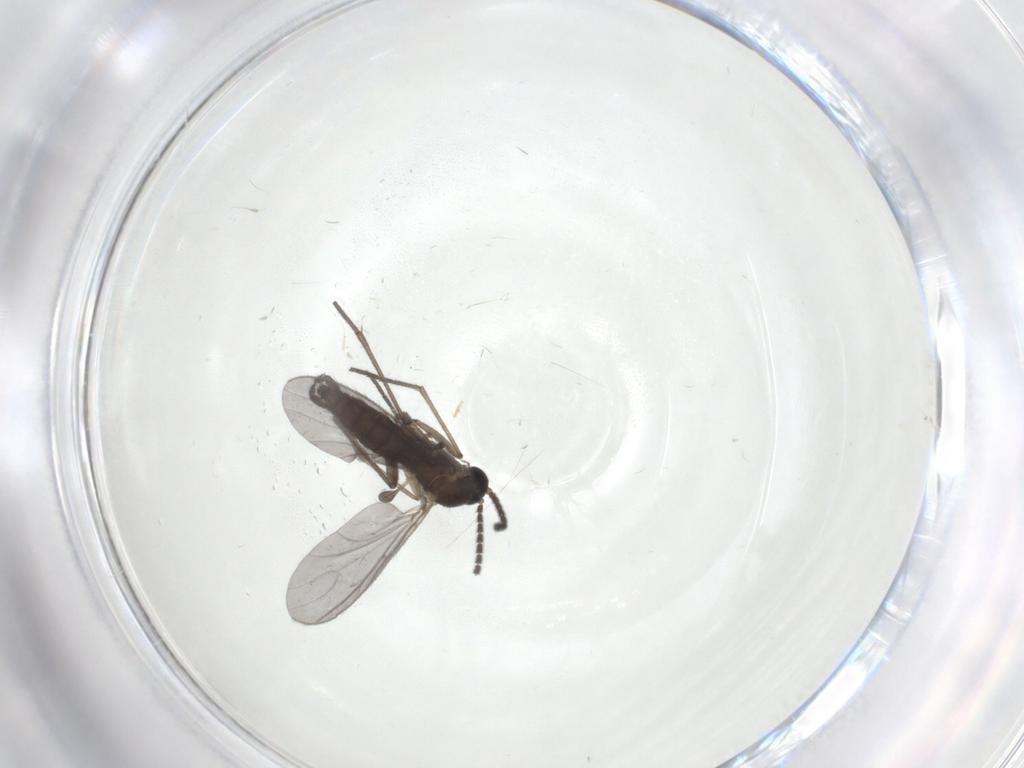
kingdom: Animalia
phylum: Arthropoda
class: Insecta
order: Diptera
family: Sciaridae
